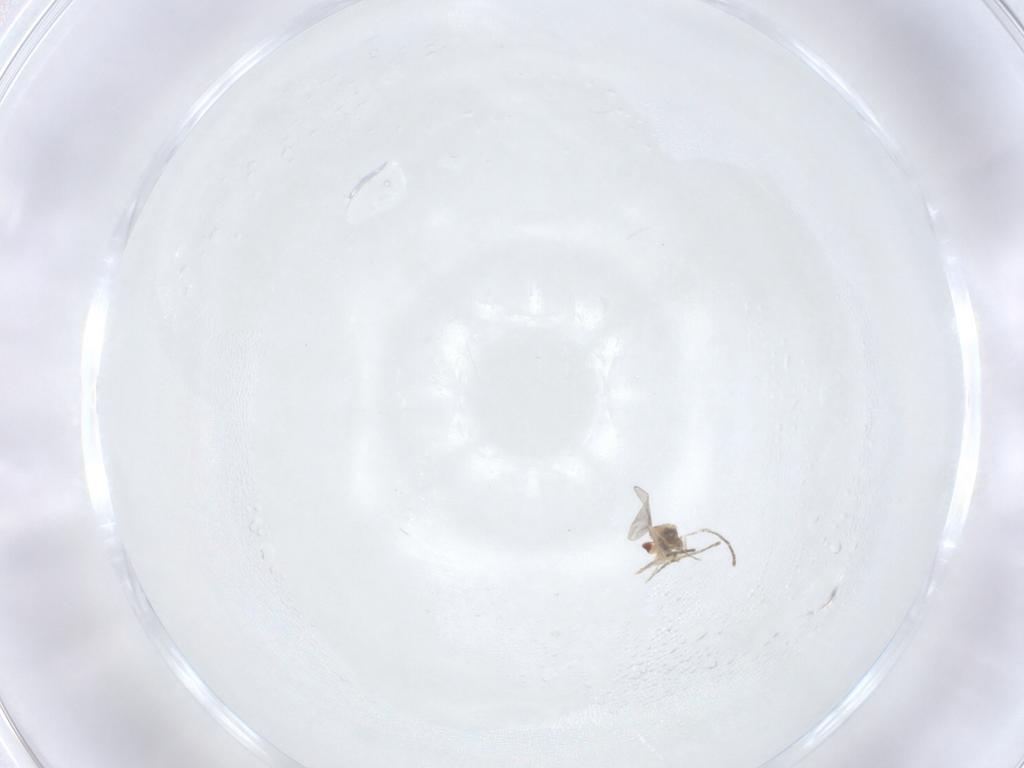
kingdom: Animalia
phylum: Arthropoda
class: Insecta
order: Diptera
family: Cecidomyiidae
